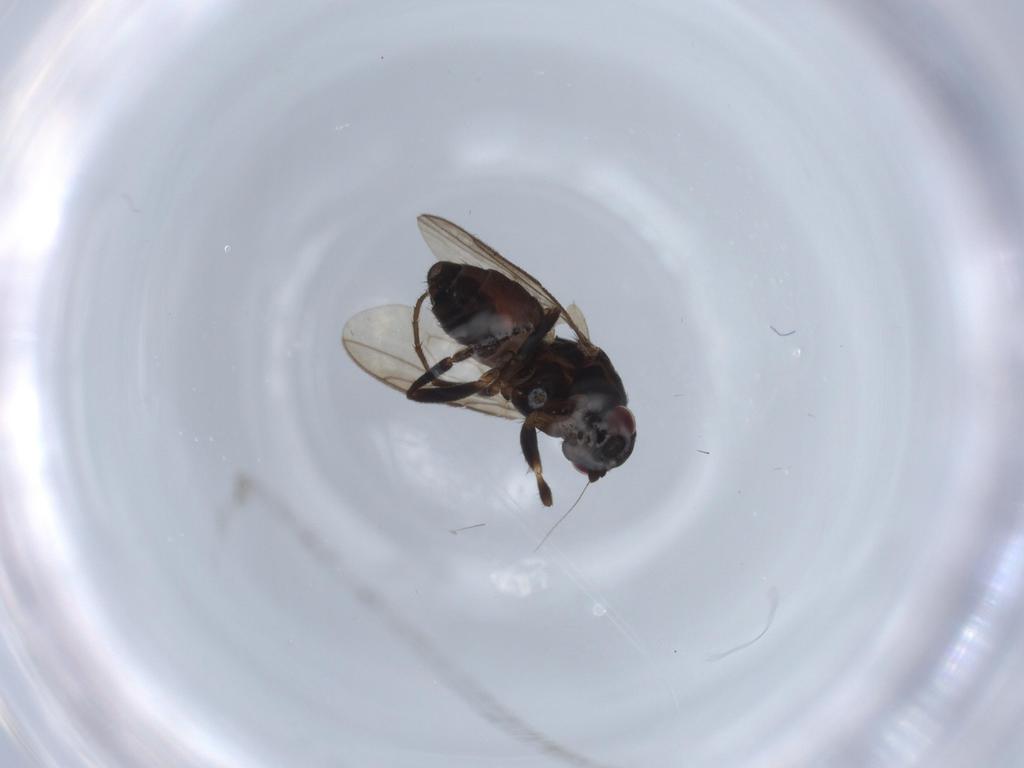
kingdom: Animalia
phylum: Arthropoda
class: Insecta
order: Diptera
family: Sphaeroceridae
